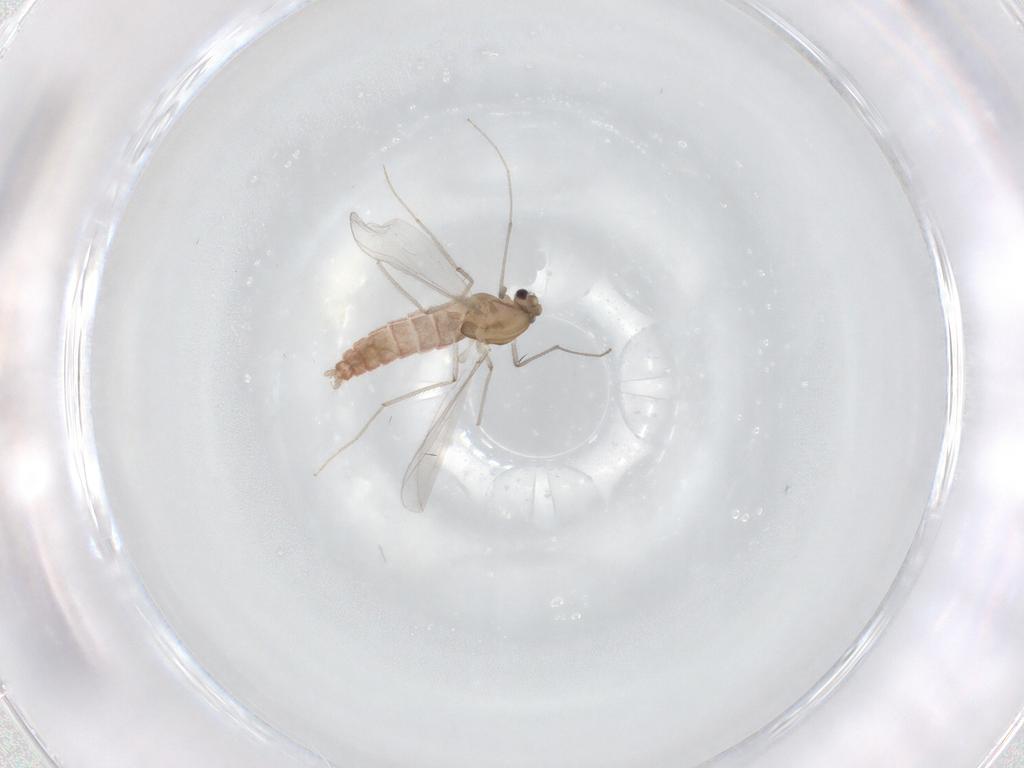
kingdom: Animalia
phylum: Arthropoda
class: Insecta
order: Diptera
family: Chironomidae
